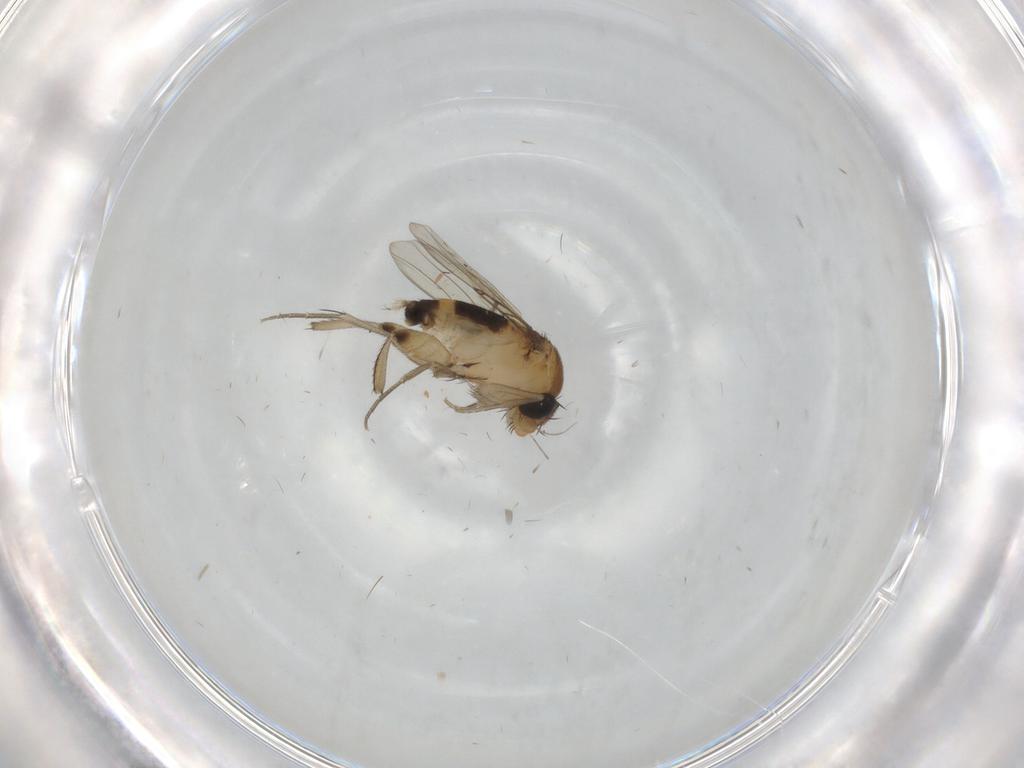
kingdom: Animalia
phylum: Arthropoda
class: Insecta
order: Diptera
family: Phoridae
